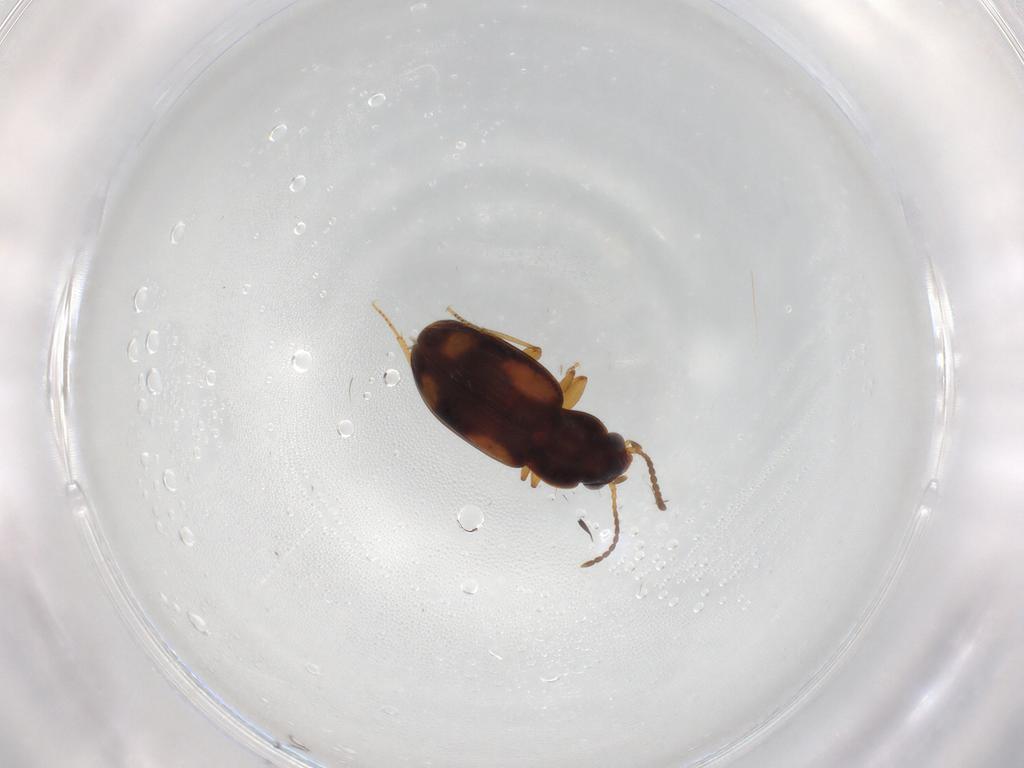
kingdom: Animalia
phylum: Arthropoda
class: Insecta
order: Coleoptera
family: Carabidae
